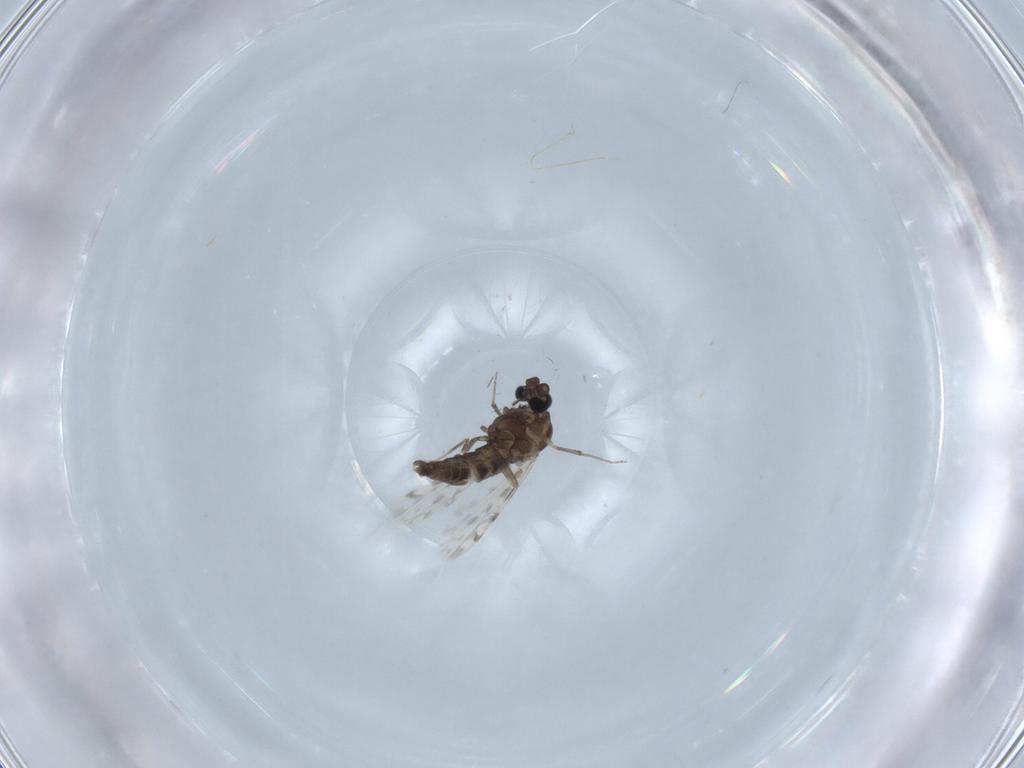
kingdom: Animalia
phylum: Arthropoda
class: Insecta
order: Diptera
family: Ceratopogonidae
